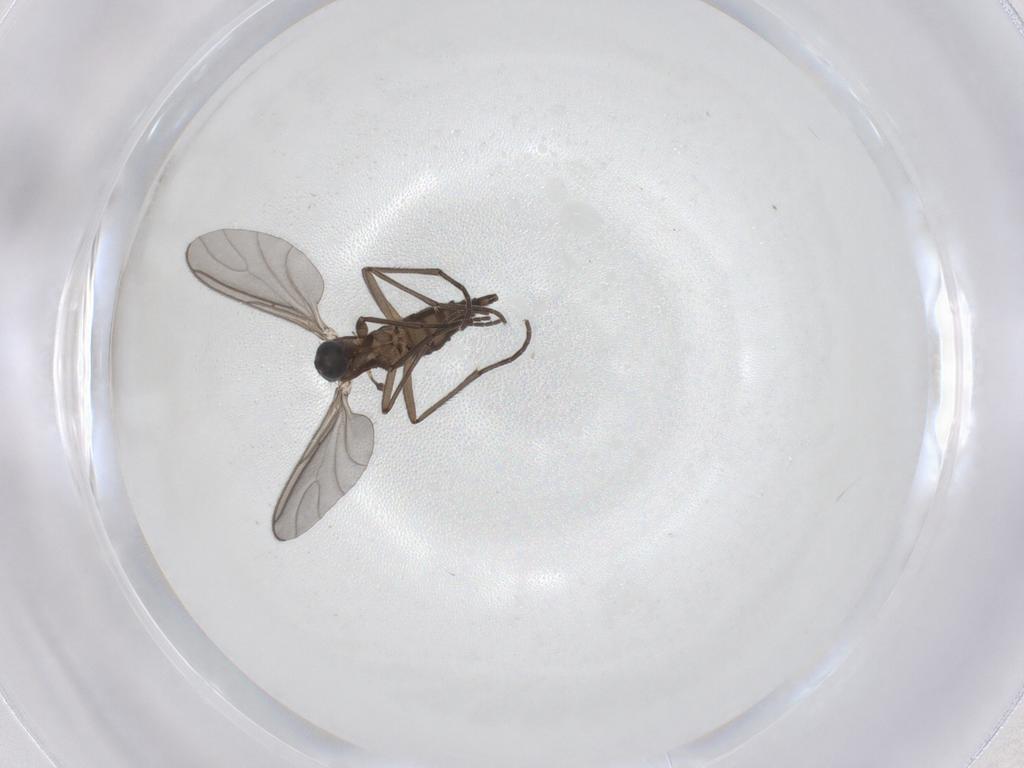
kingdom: Animalia
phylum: Arthropoda
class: Insecta
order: Diptera
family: Sciaridae
